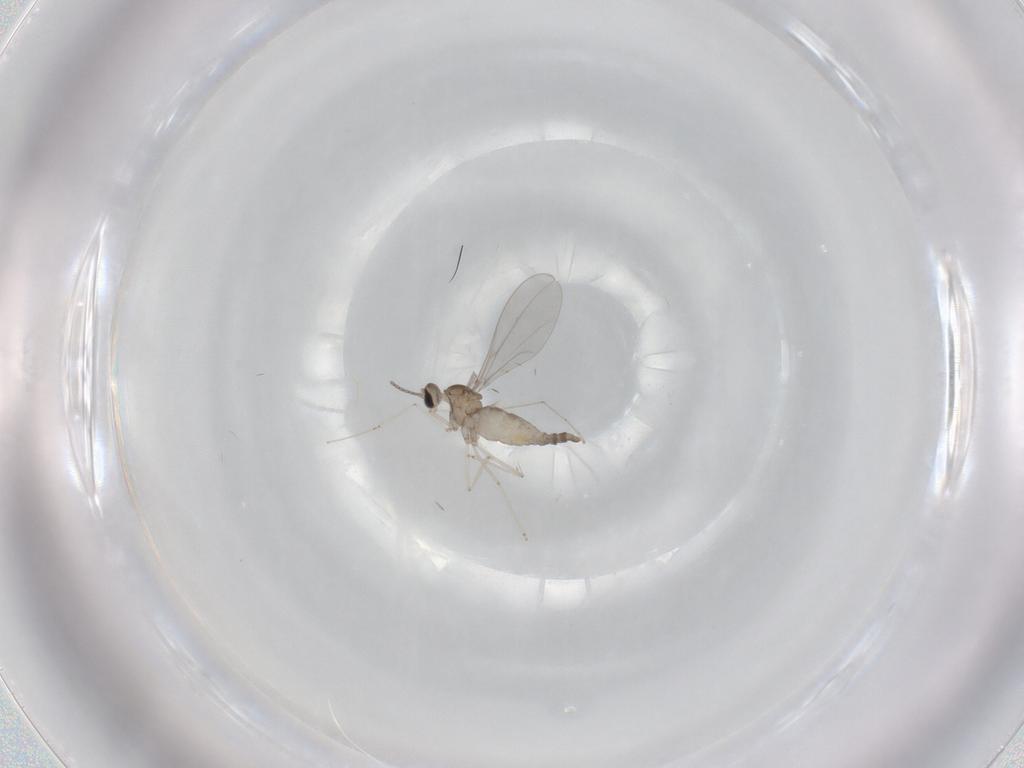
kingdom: Animalia
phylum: Arthropoda
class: Insecta
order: Diptera
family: Cecidomyiidae
